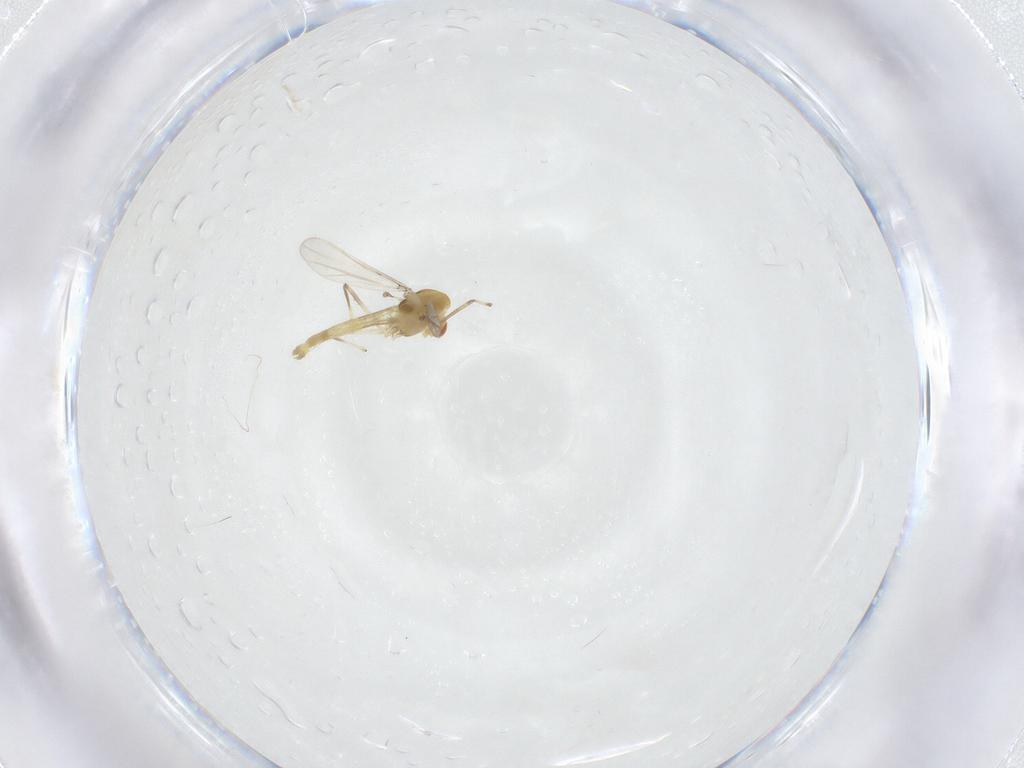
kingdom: Animalia
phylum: Arthropoda
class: Insecta
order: Diptera
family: Chironomidae
